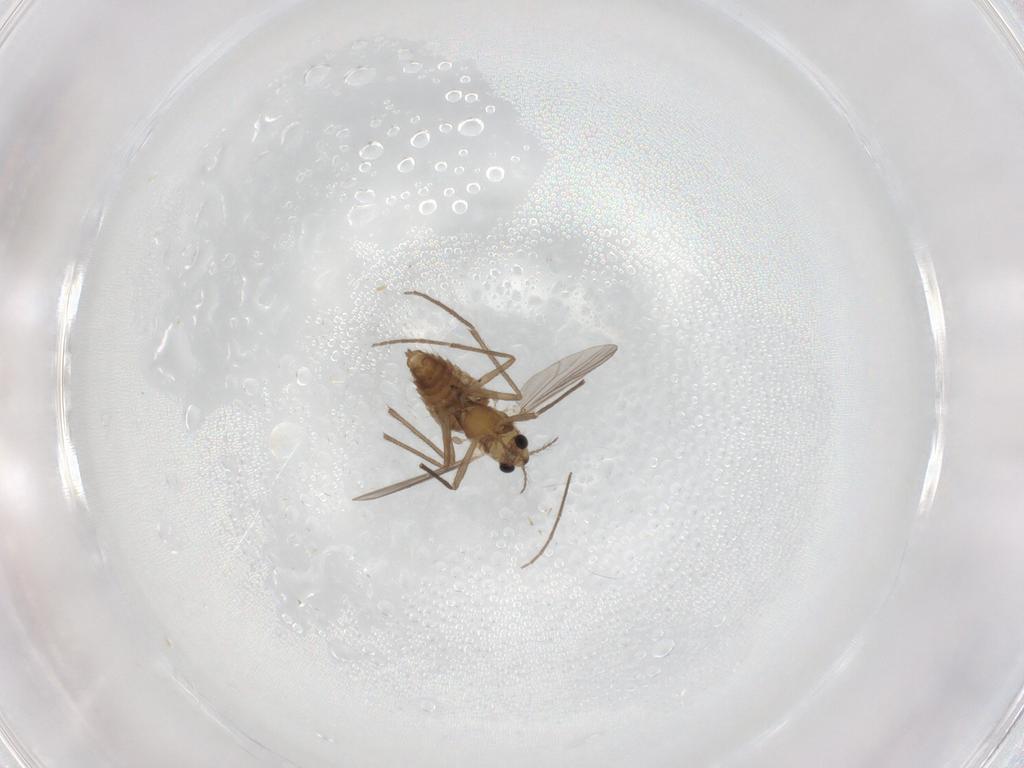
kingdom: Animalia
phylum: Arthropoda
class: Insecta
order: Diptera
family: Chironomidae
